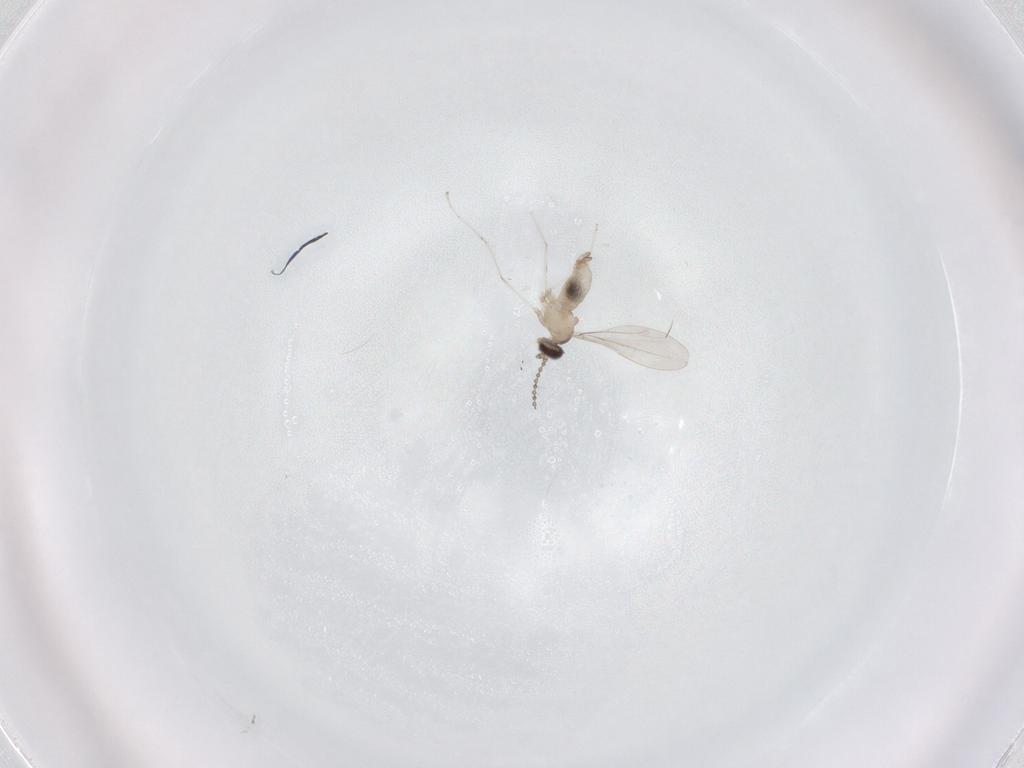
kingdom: Animalia
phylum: Arthropoda
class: Insecta
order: Diptera
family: Cecidomyiidae
